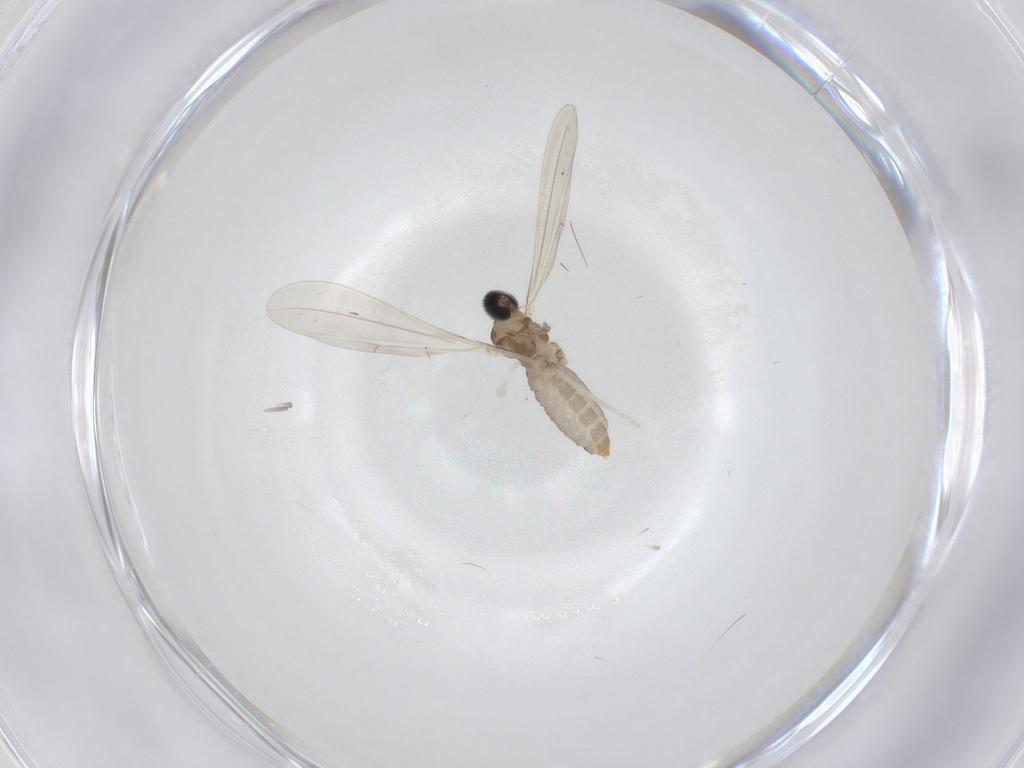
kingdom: Animalia
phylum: Arthropoda
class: Insecta
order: Diptera
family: Cecidomyiidae
